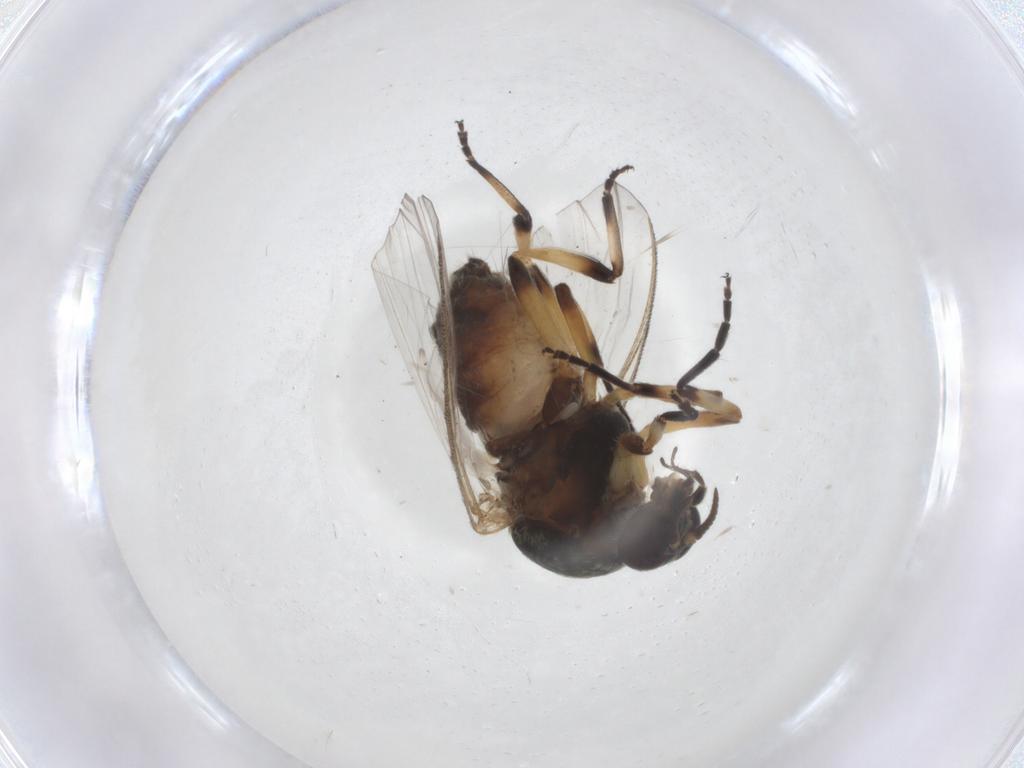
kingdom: Animalia
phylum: Arthropoda
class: Insecta
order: Diptera
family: Simuliidae
